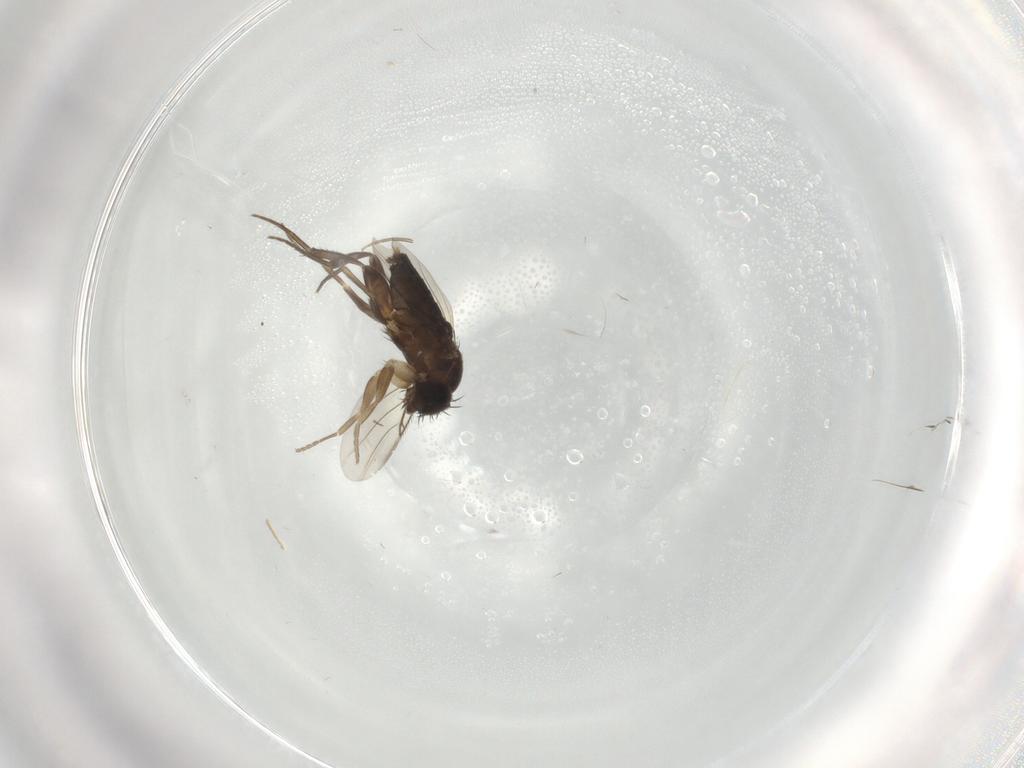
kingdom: Animalia
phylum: Arthropoda
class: Insecta
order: Diptera
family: Phoridae
